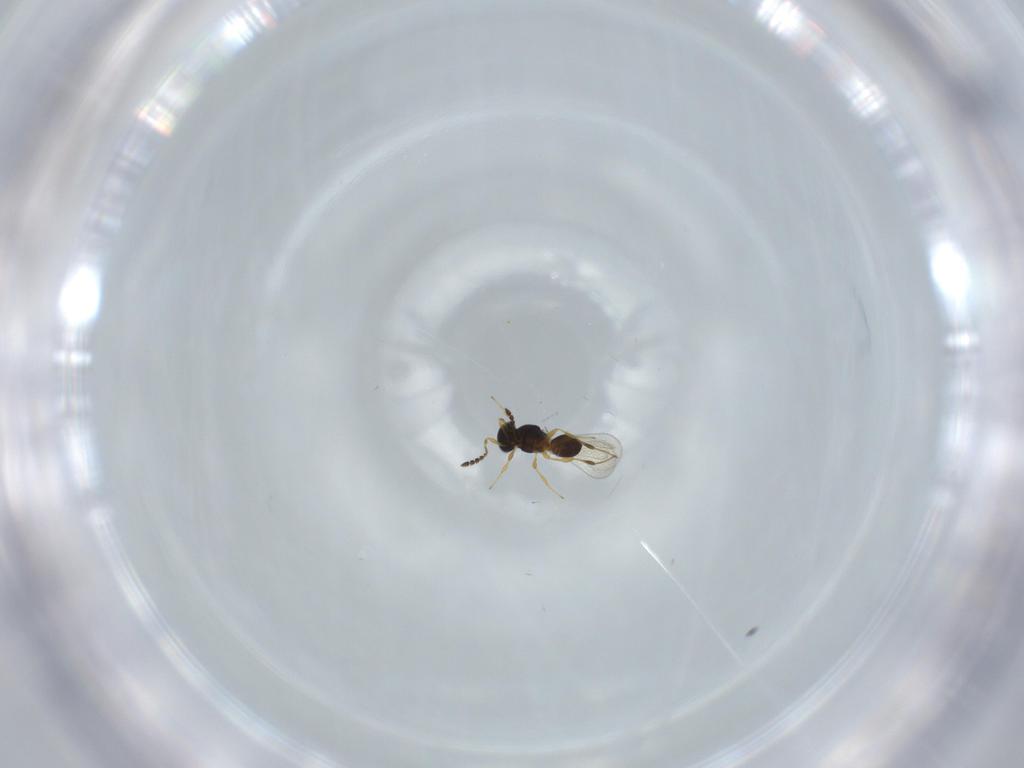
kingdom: Animalia
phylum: Arthropoda
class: Insecta
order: Hymenoptera
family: Platygastridae
